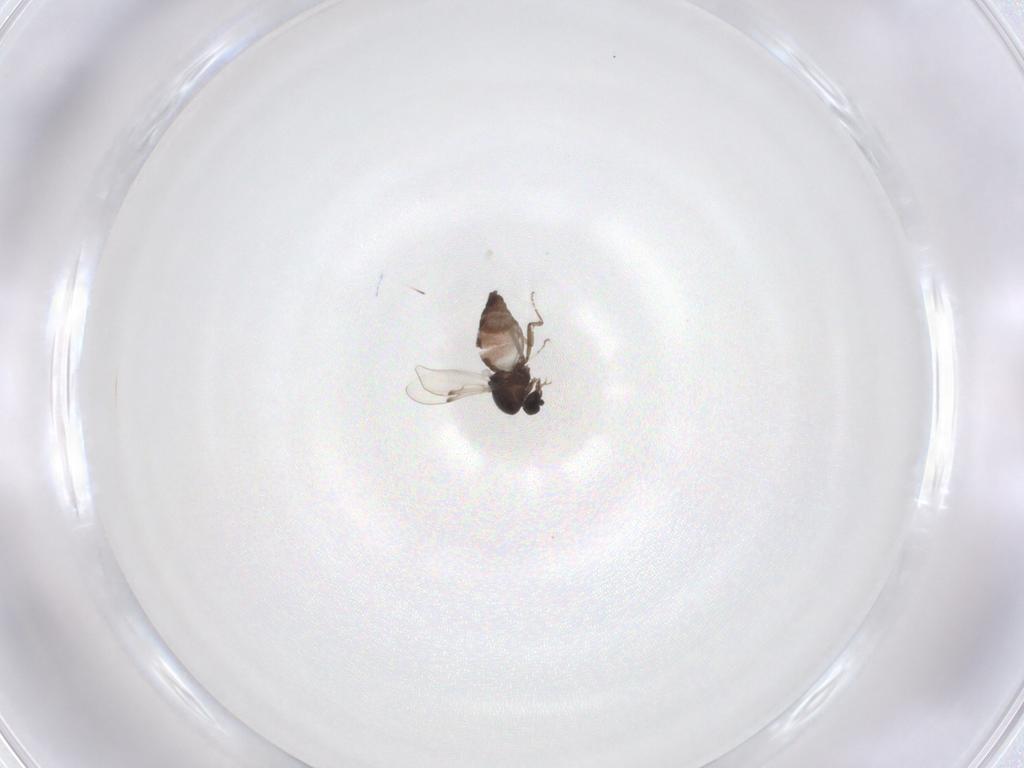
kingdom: Animalia
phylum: Arthropoda
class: Insecta
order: Diptera
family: Chironomidae
